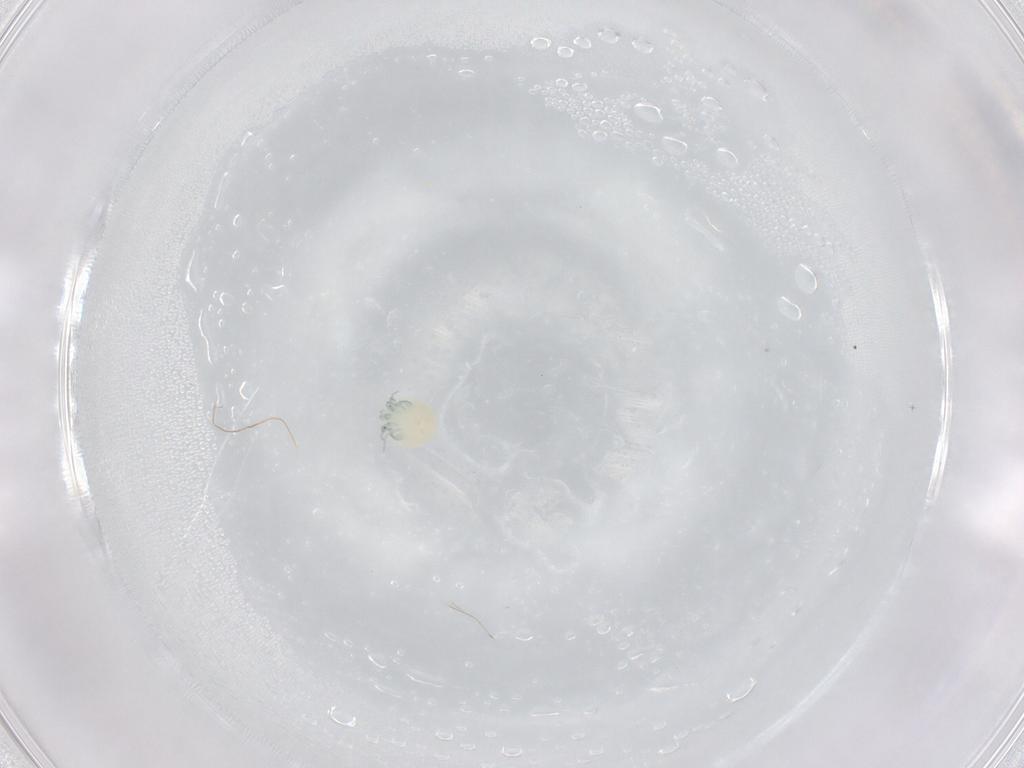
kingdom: Animalia
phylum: Arthropoda
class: Arachnida
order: Trombidiformes
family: Arrenuridae
